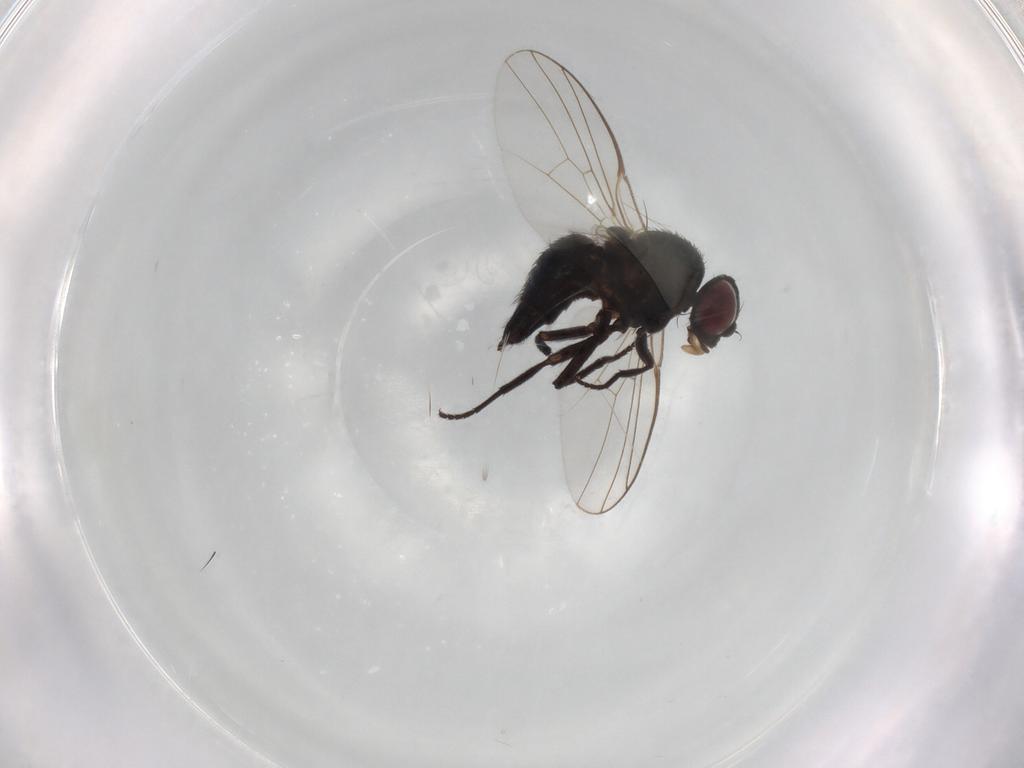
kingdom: Animalia
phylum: Arthropoda
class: Insecta
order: Diptera
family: Agromyzidae
